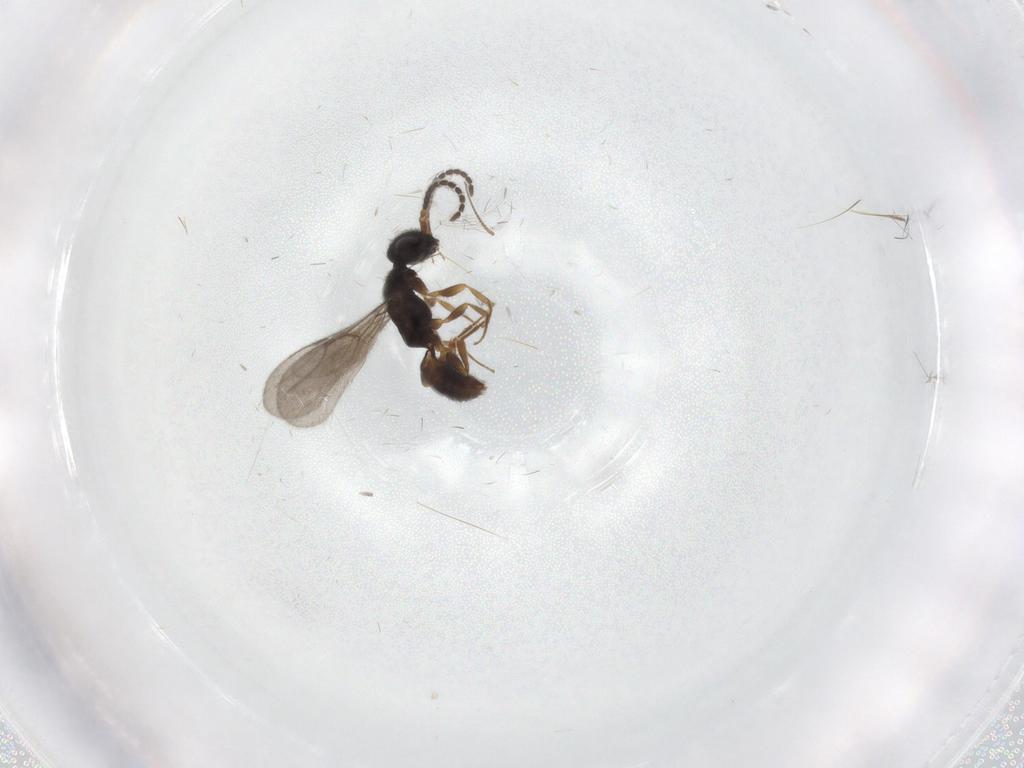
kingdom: Animalia
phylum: Arthropoda
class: Insecta
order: Hymenoptera
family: Bethylidae
